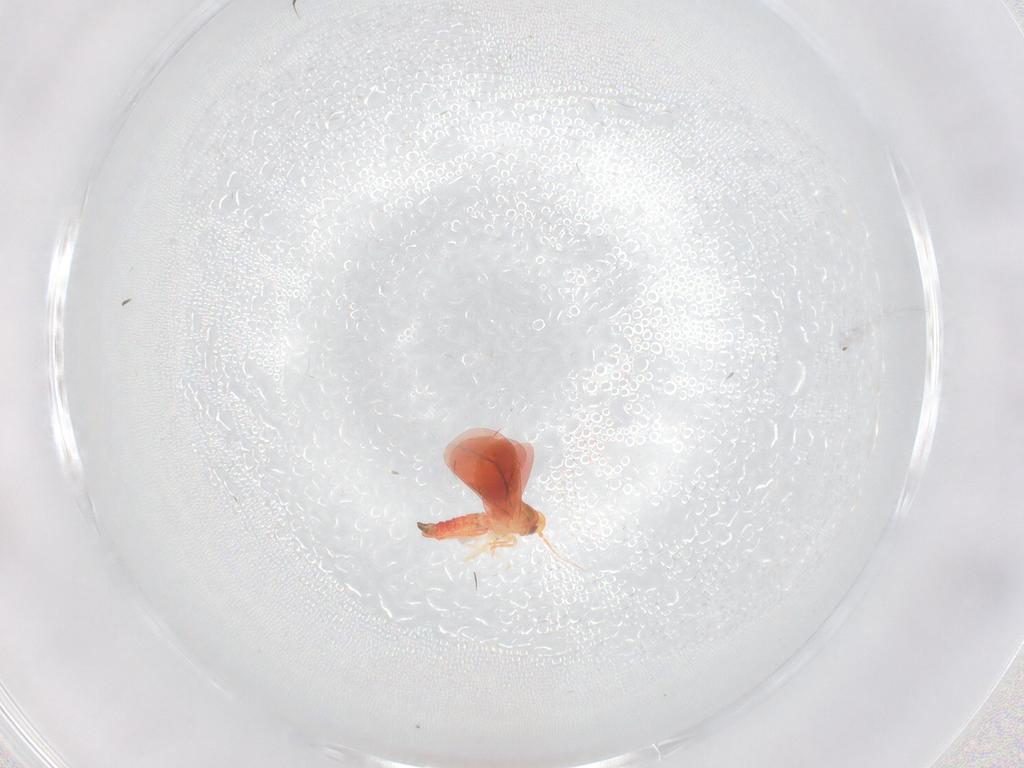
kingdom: Animalia
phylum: Arthropoda
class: Insecta
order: Hemiptera
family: Aleyrodidae
